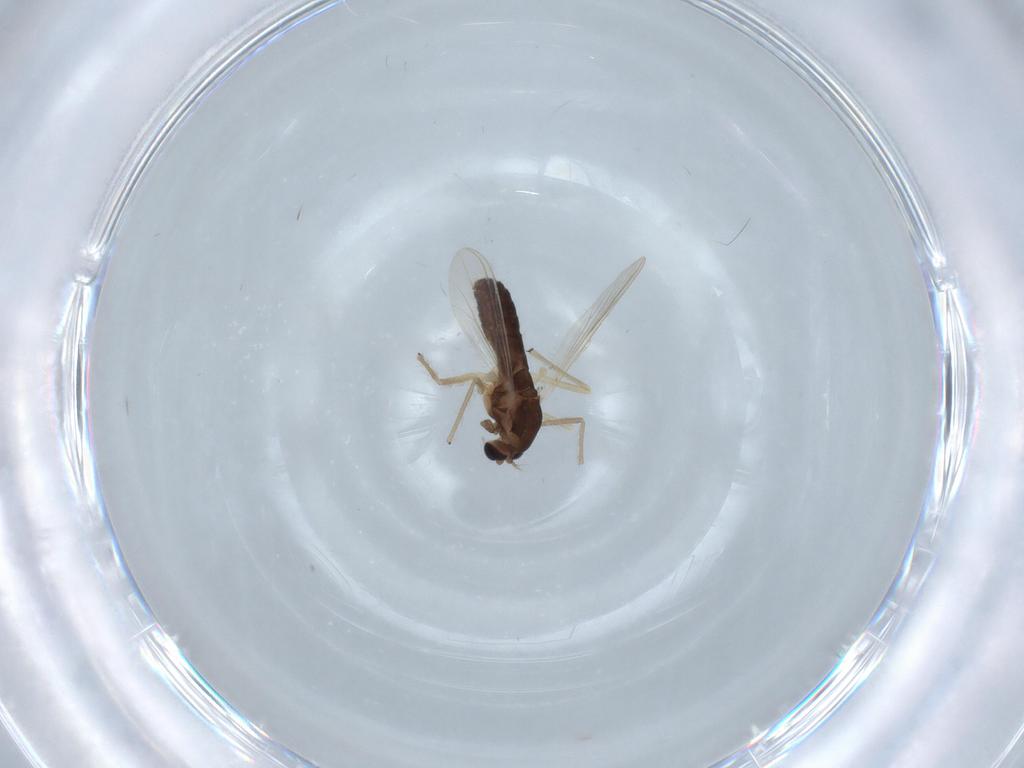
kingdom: Animalia
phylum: Arthropoda
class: Insecta
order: Diptera
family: Chironomidae
